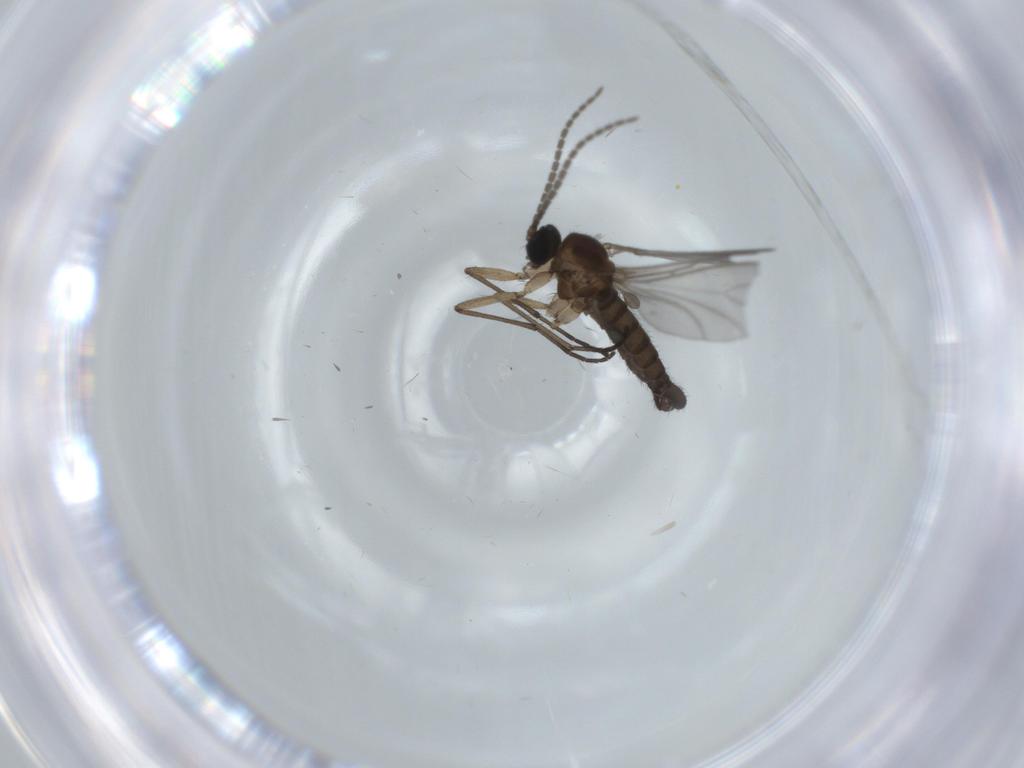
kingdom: Animalia
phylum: Arthropoda
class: Insecta
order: Diptera
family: Sciaridae
